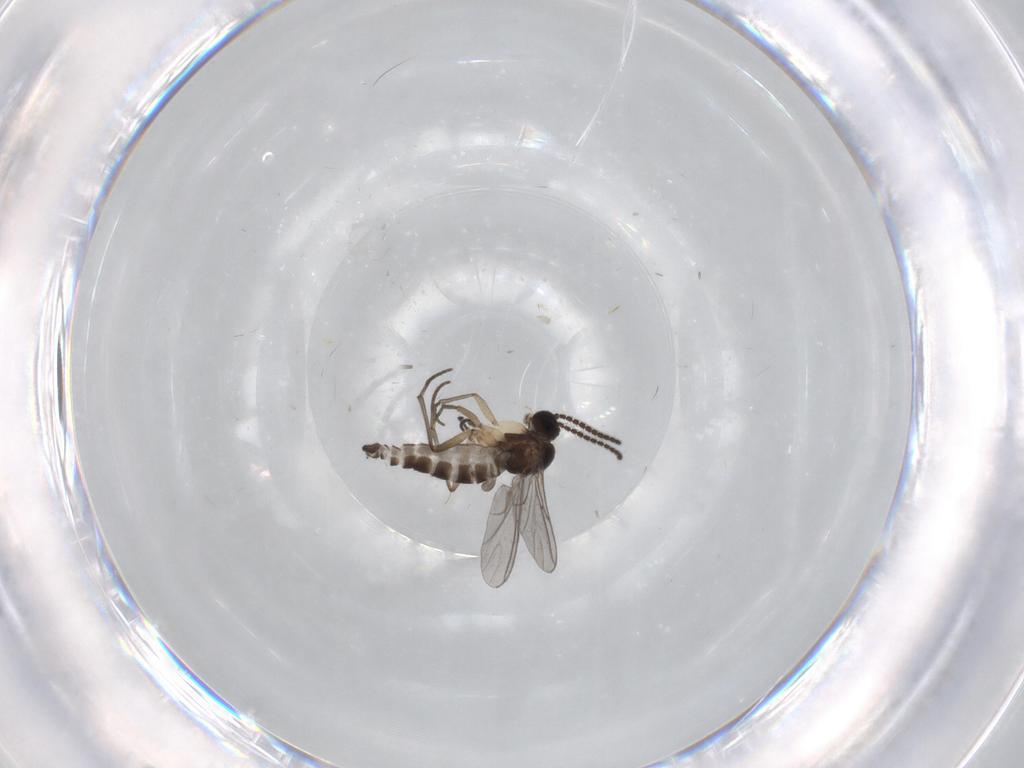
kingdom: Animalia
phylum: Arthropoda
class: Insecta
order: Diptera
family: Sciaridae
